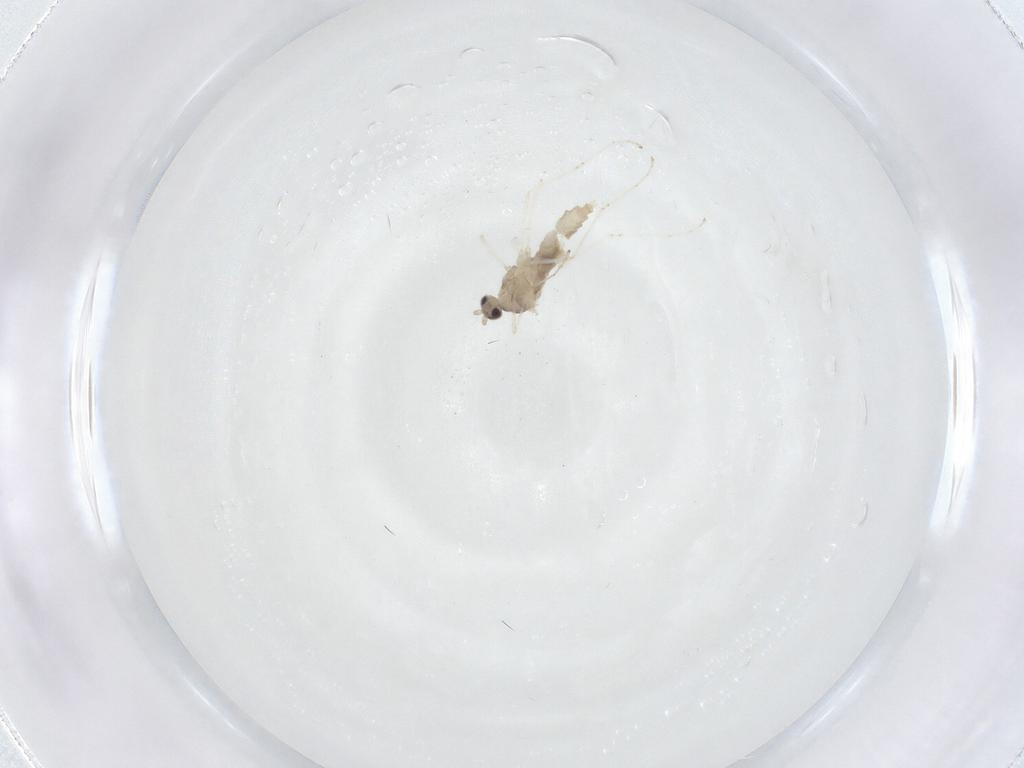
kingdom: Animalia
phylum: Arthropoda
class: Insecta
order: Diptera
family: Cecidomyiidae
